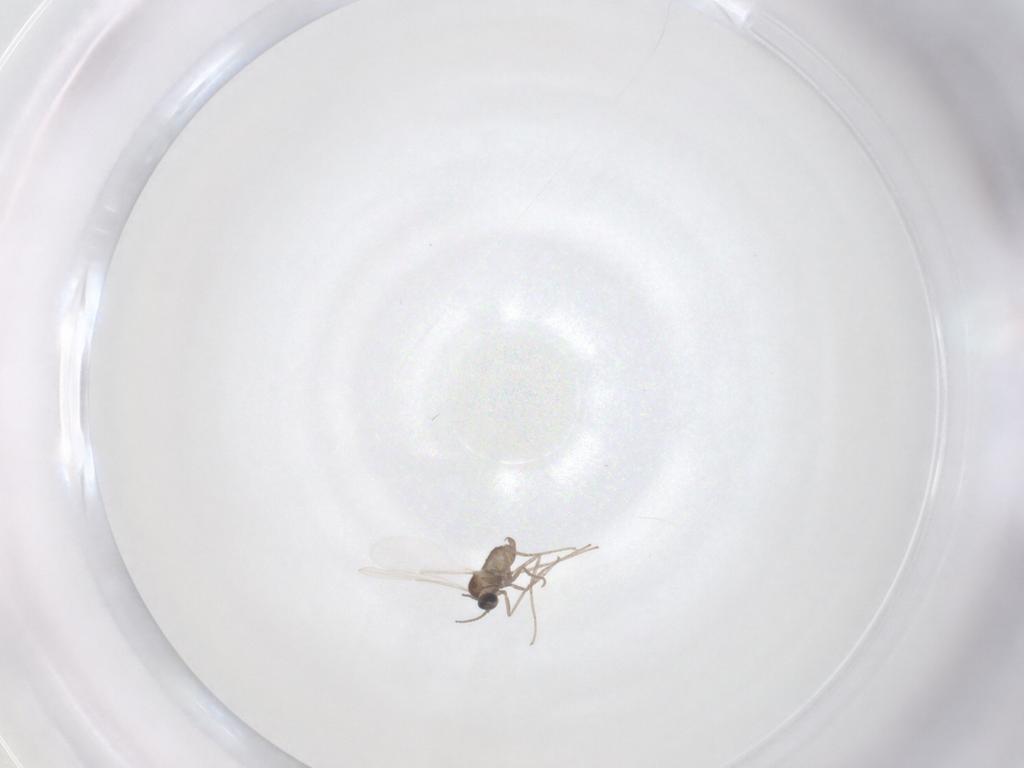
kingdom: Animalia
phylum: Arthropoda
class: Insecta
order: Diptera
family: Cecidomyiidae
